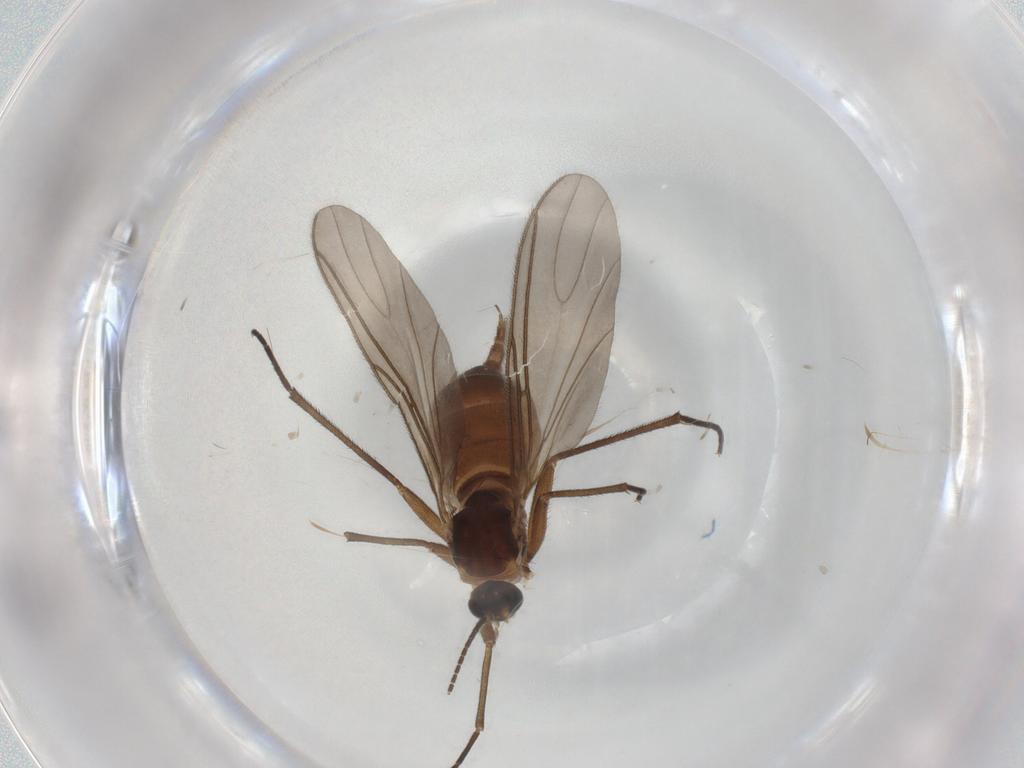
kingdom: Animalia
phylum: Arthropoda
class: Insecta
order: Diptera
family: Sciaridae
